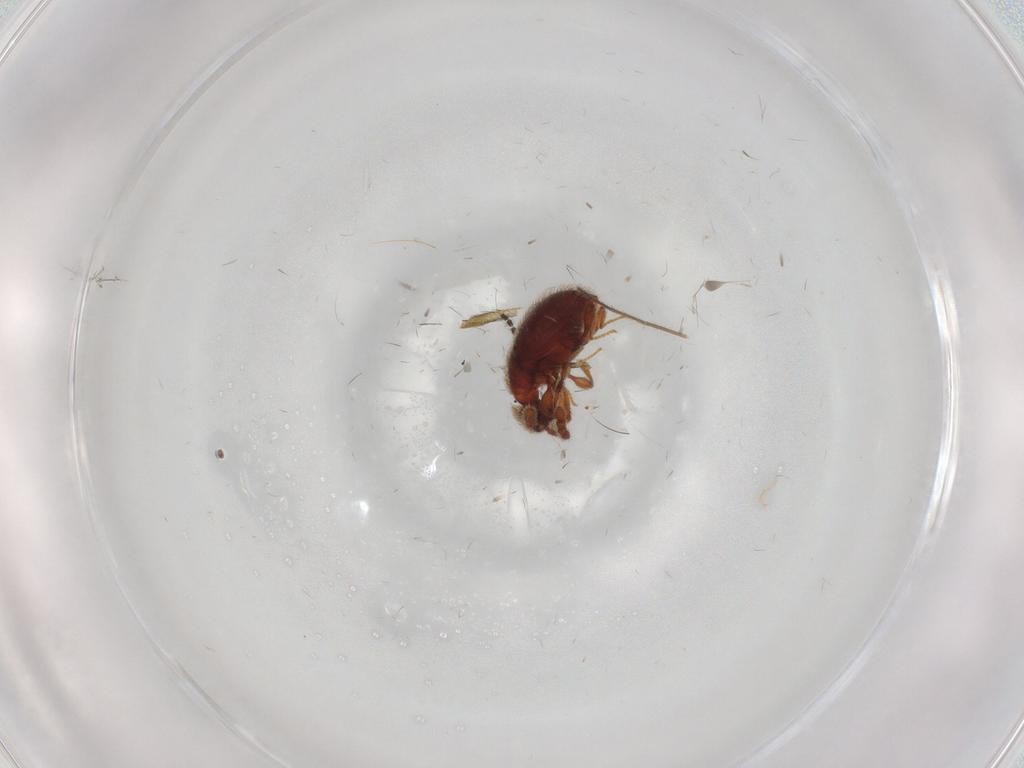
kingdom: Animalia
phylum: Arthropoda
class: Insecta
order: Coleoptera
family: Staphylinidae
